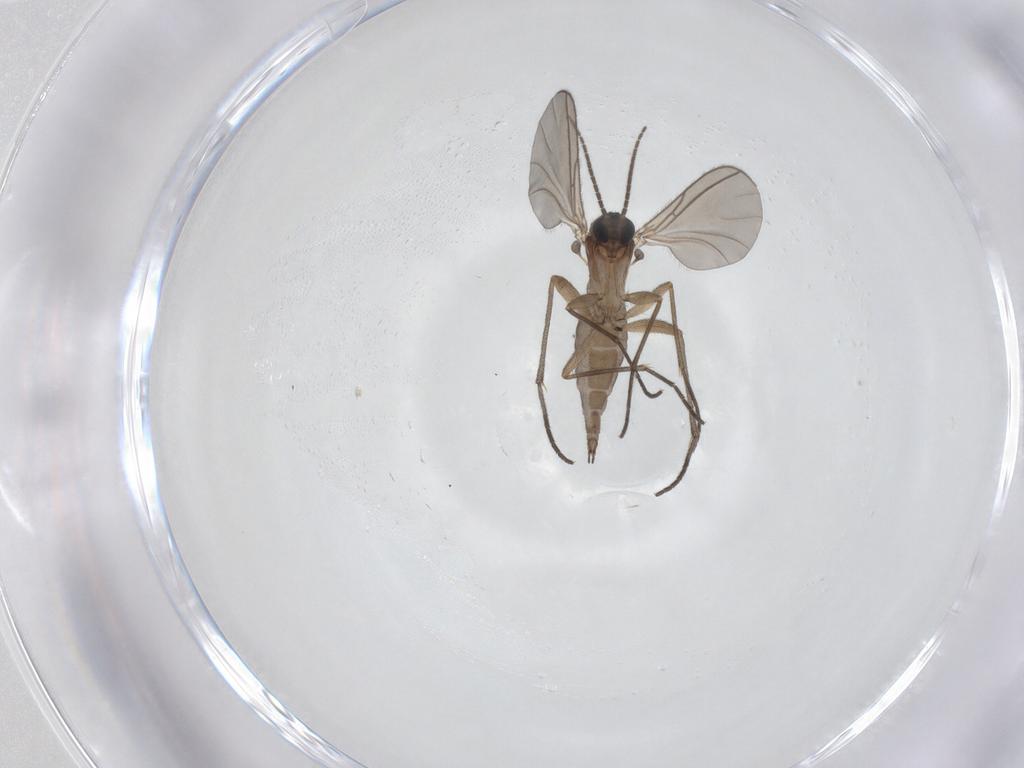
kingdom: Animalia
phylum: Arthropoda
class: Insecta
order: Diptera
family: Sciaridae
